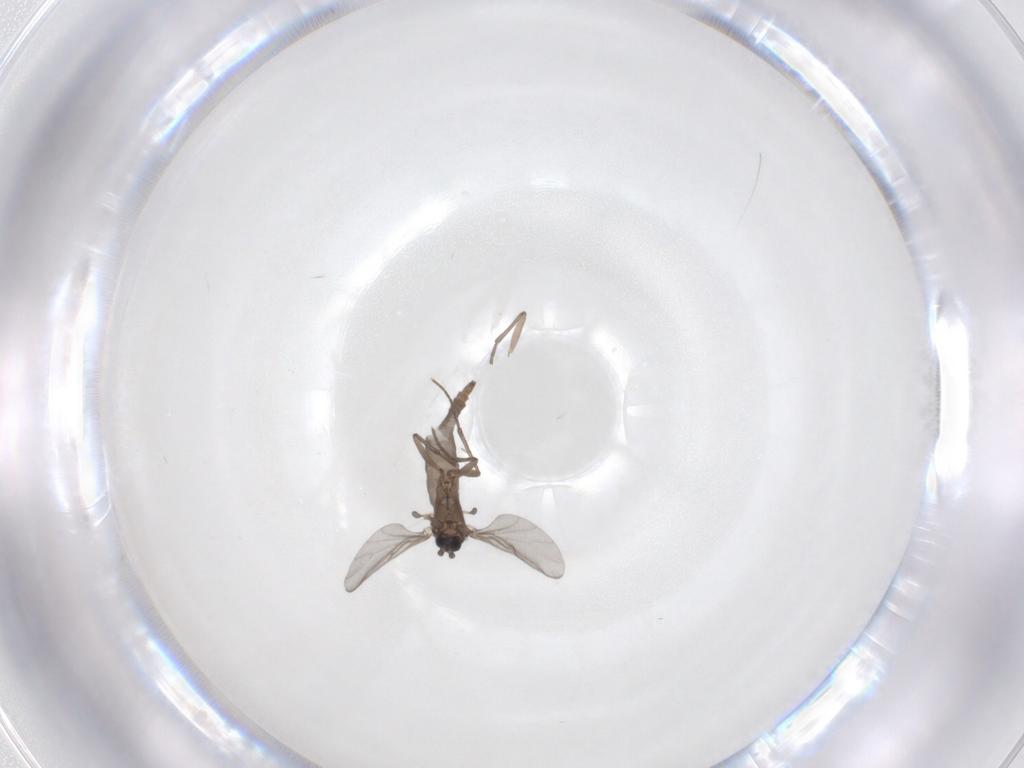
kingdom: Animalia
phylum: Arthropoda
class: Insecta
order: Diptera
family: Sciaridae
